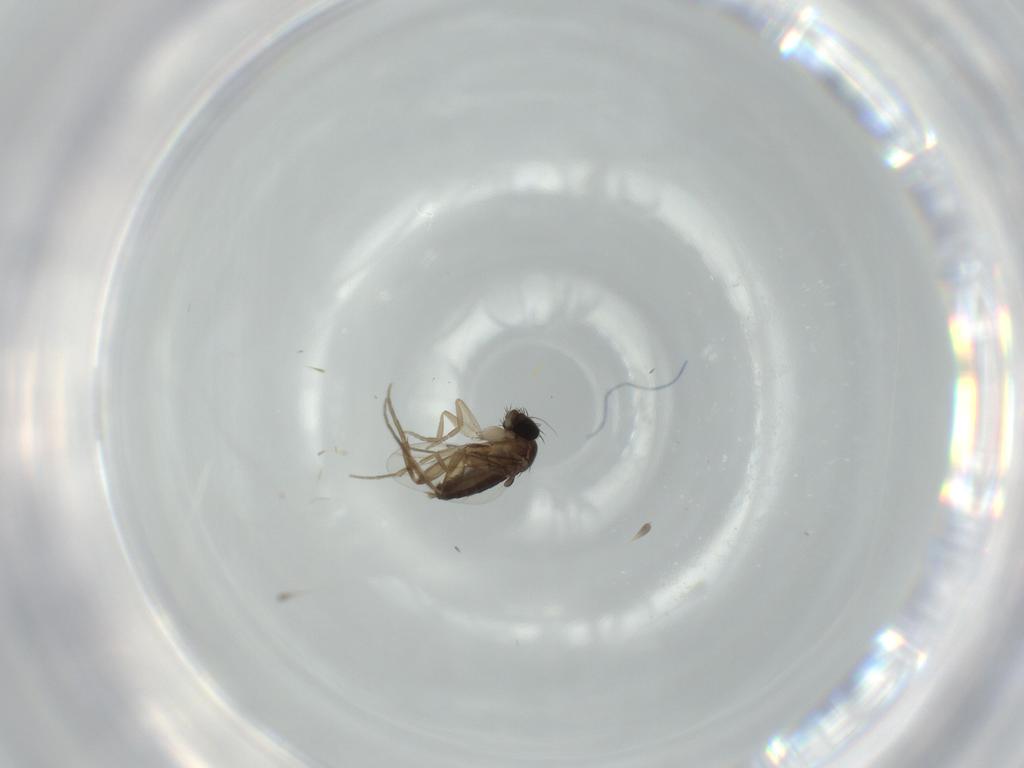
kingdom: Animalia
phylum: Arthropoda
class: Insecta
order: Diptera
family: Phoridae
